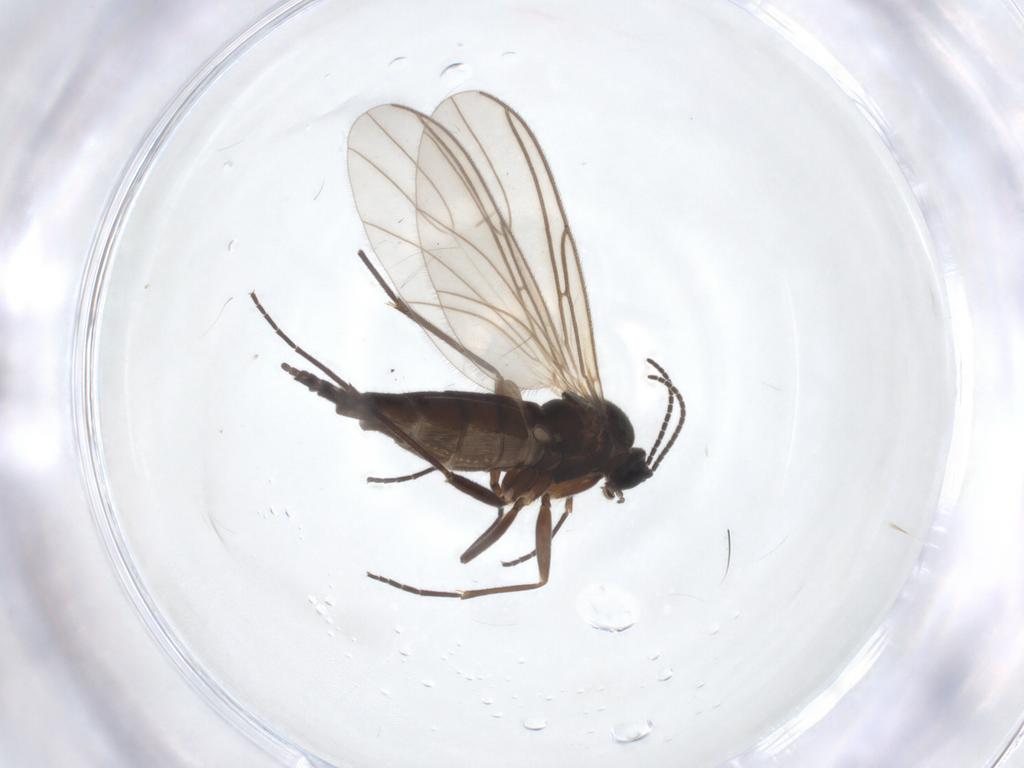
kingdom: Animalia
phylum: Arthropoda
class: Insecta
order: Diptera
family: Sciaridae
